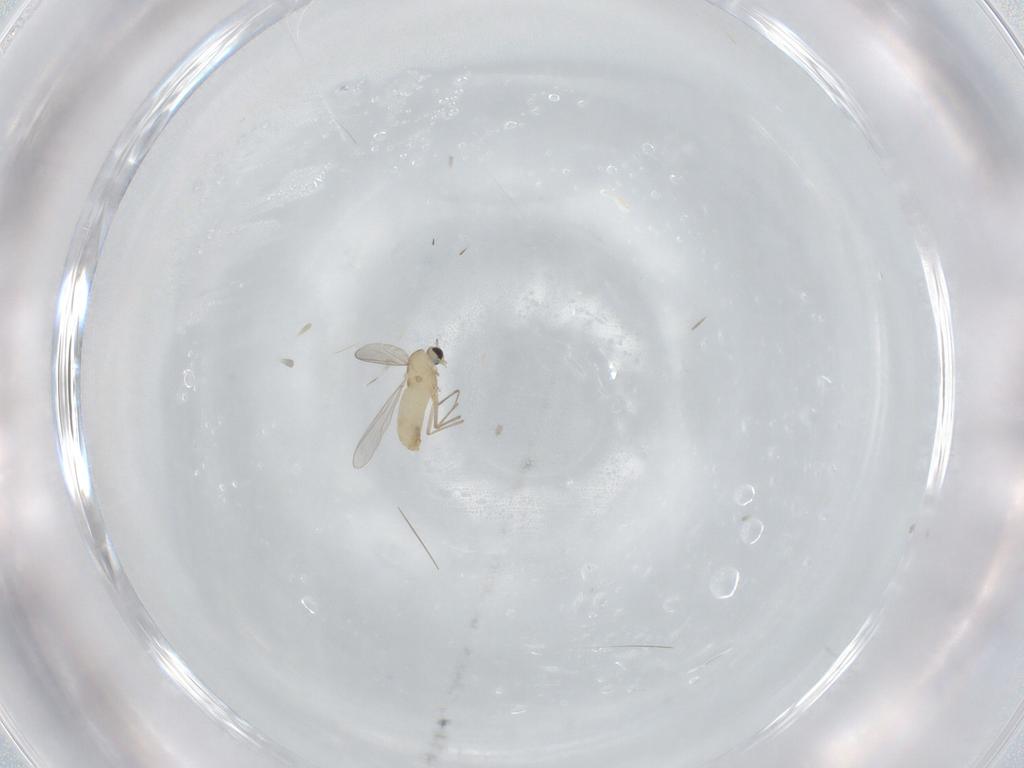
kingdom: Animalia
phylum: Arthropoda
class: Insecta
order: Diptera
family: Chironomidae
